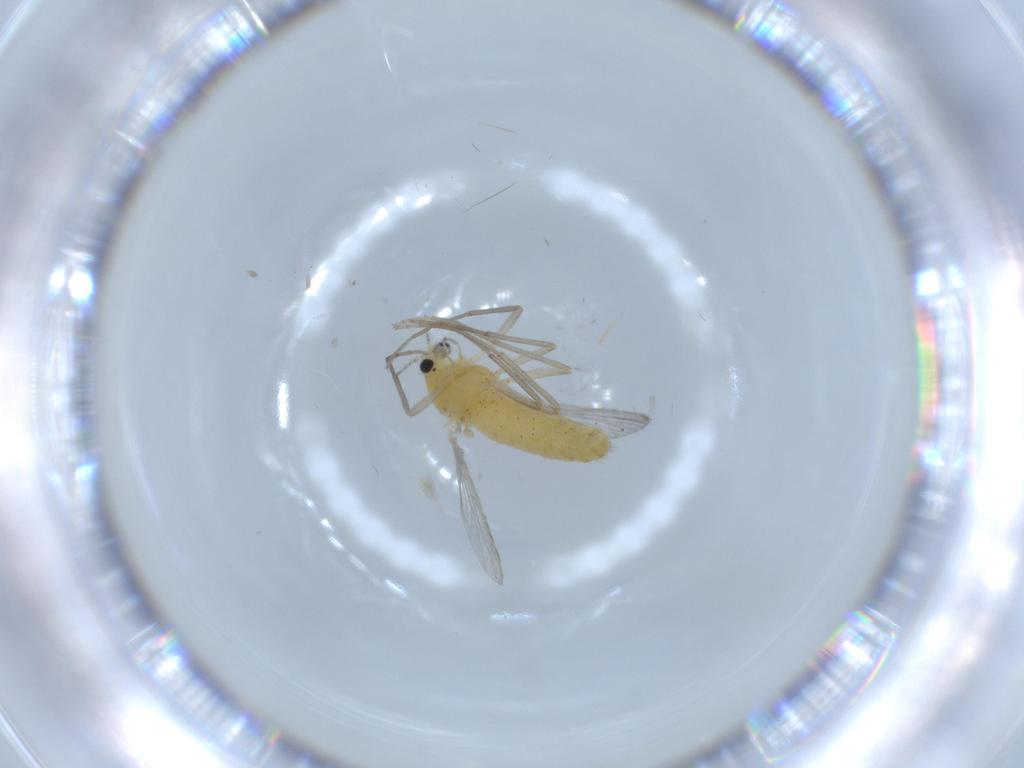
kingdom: Animalia
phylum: Arthropoda
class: Insecta
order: Diptera
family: Chironomidae
